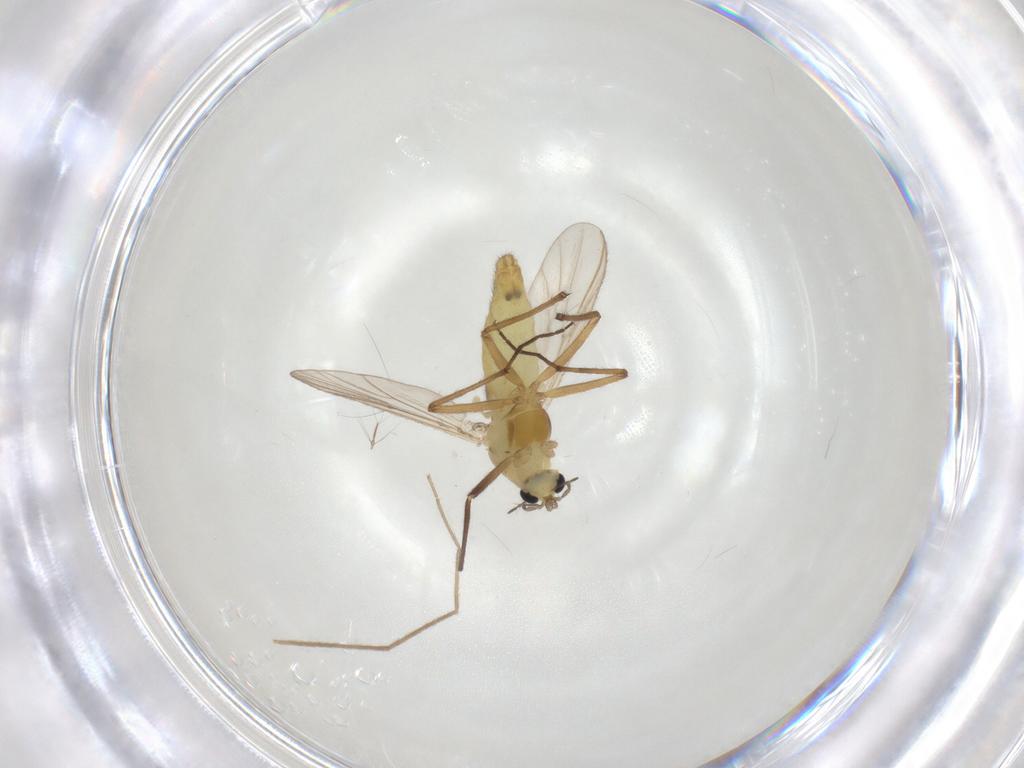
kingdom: Animalia
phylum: Arthropoda
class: Insecta
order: Diptera
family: Chironomidae
